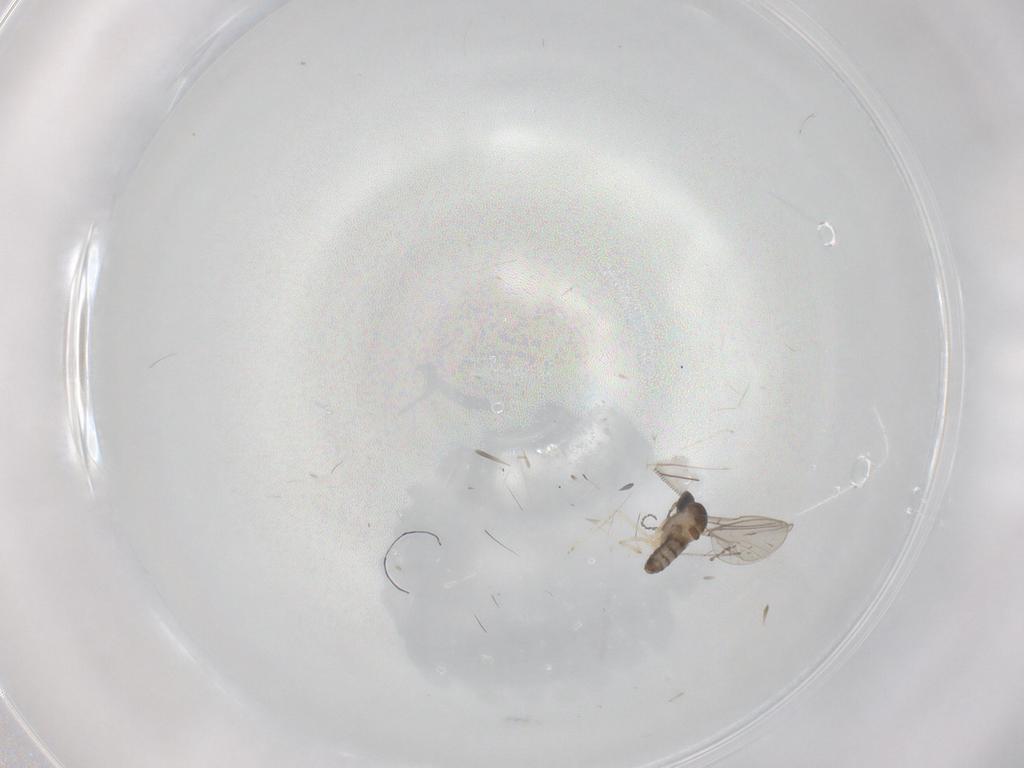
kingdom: Animalia
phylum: Arthropoda
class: Insecta
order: Diptera
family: Cecidomyiidae
